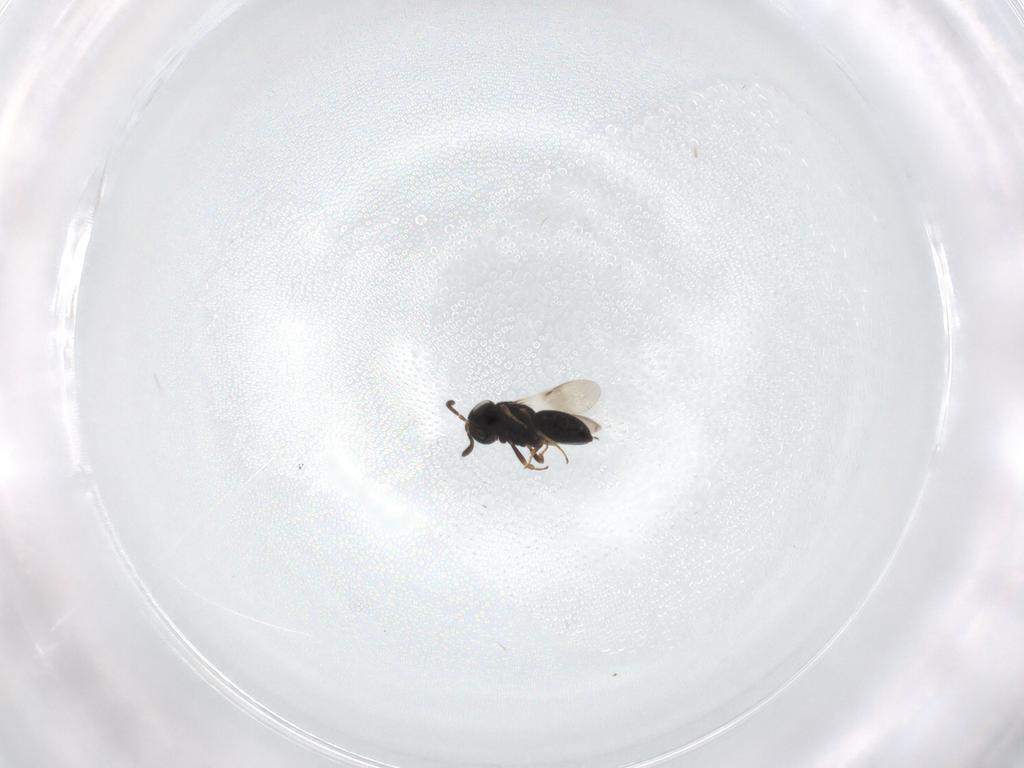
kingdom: Animalia
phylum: Arthropoda
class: Insecta
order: Hymenoptera
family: Scelionidae
